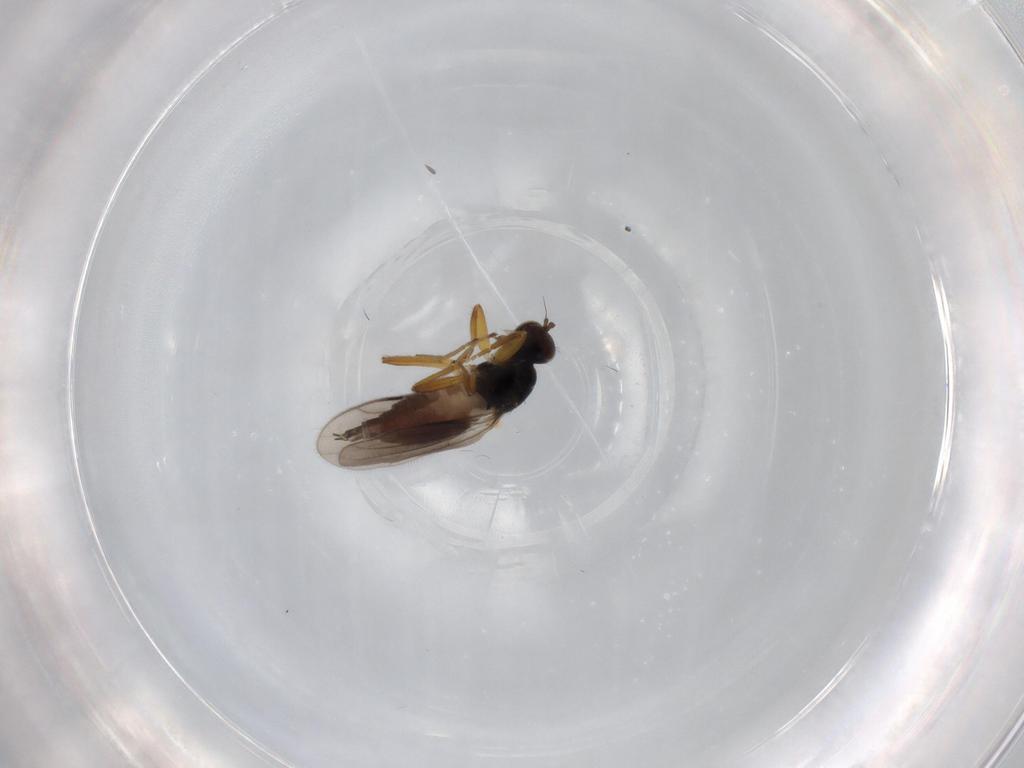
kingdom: Animalia
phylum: Arthropoda
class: Insecta
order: Diptera
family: Hybotidae
